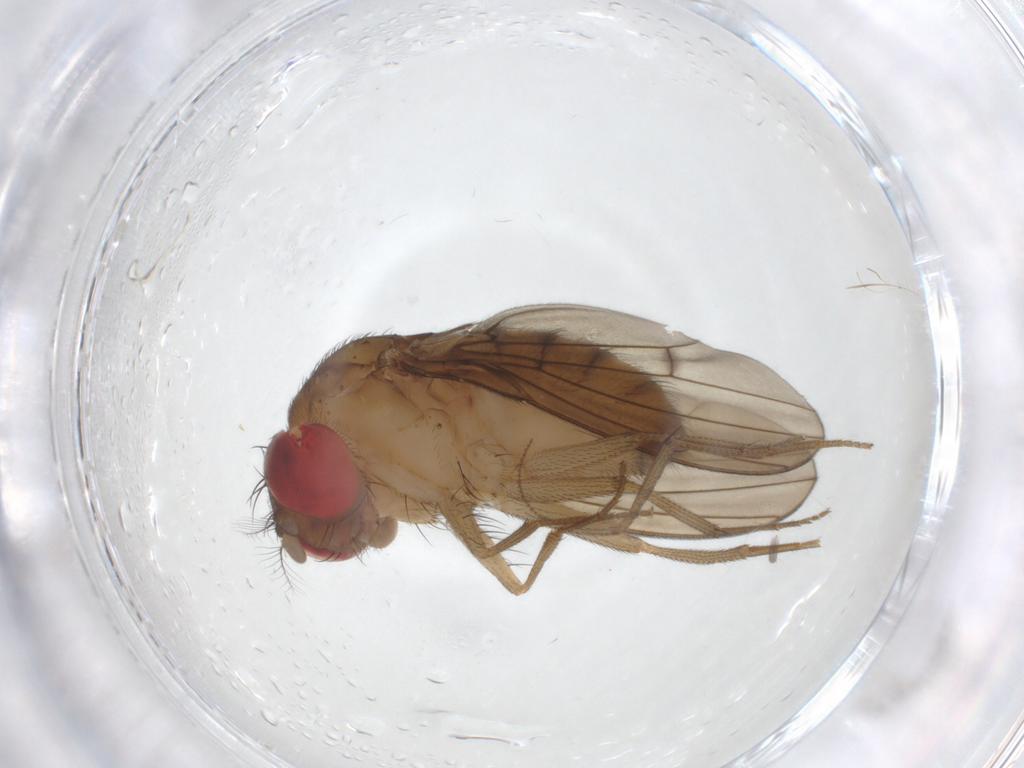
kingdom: Animalia
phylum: Arthropoda
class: Insecta
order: Diptera
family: Drosophilidae
